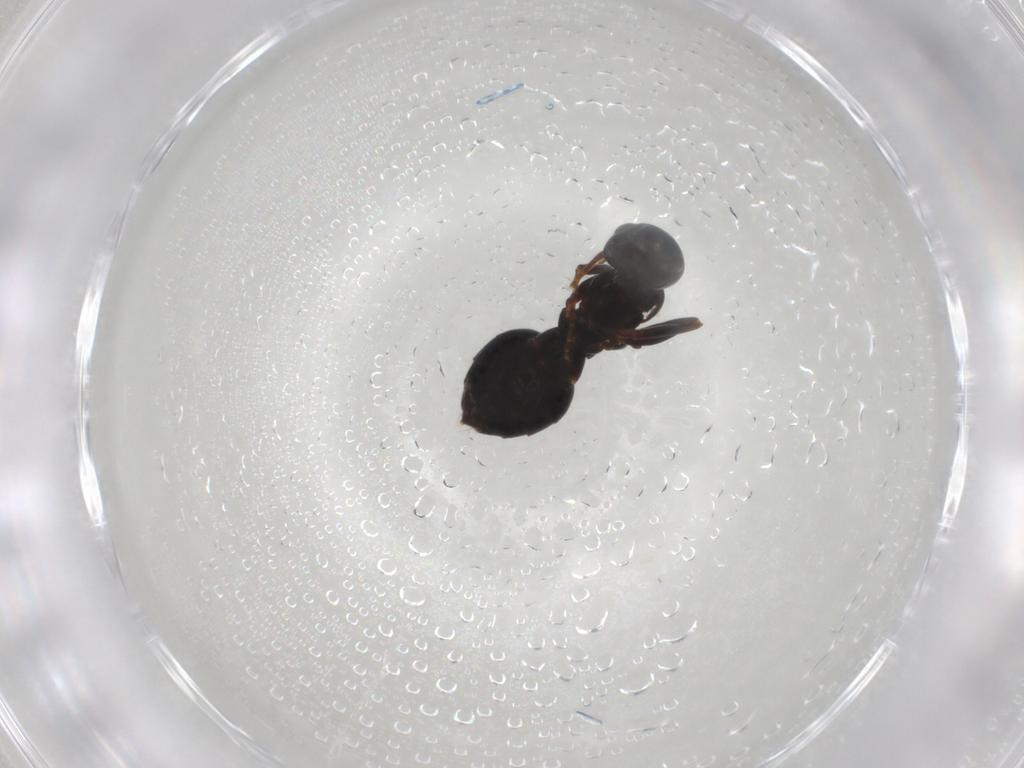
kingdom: Animalia
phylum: Arthropoda
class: Insecta
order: Hymenoptera
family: Formicidae
